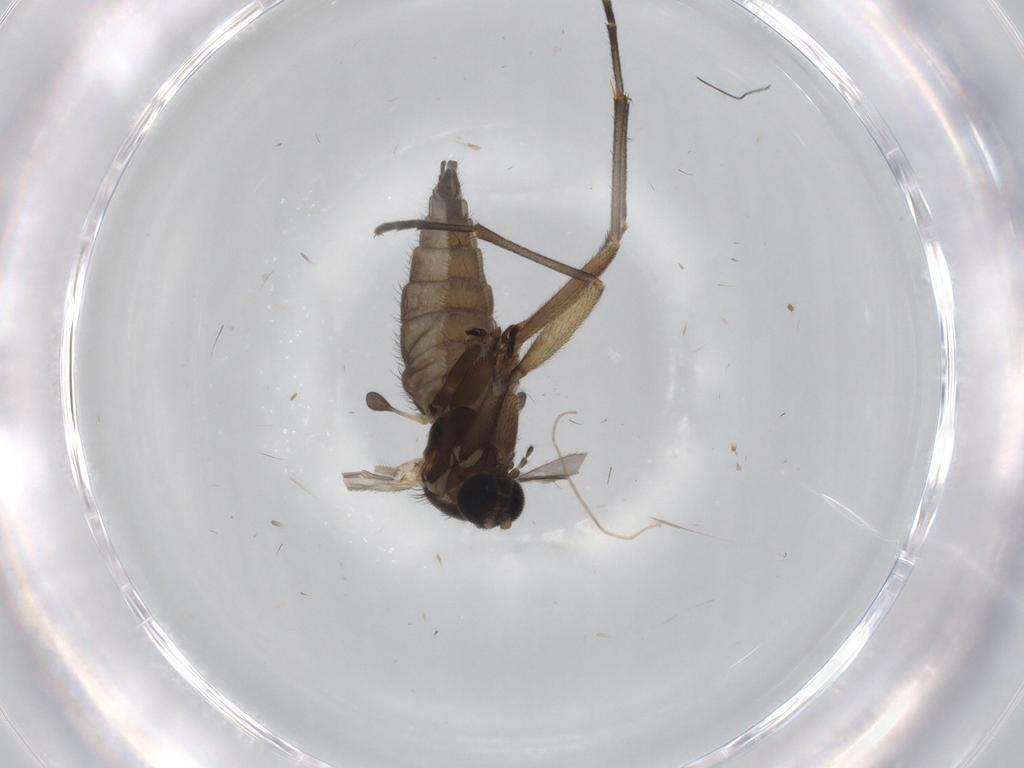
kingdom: Animalia
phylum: Arthropoda
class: Insecta
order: Diptera
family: Sciaridae
